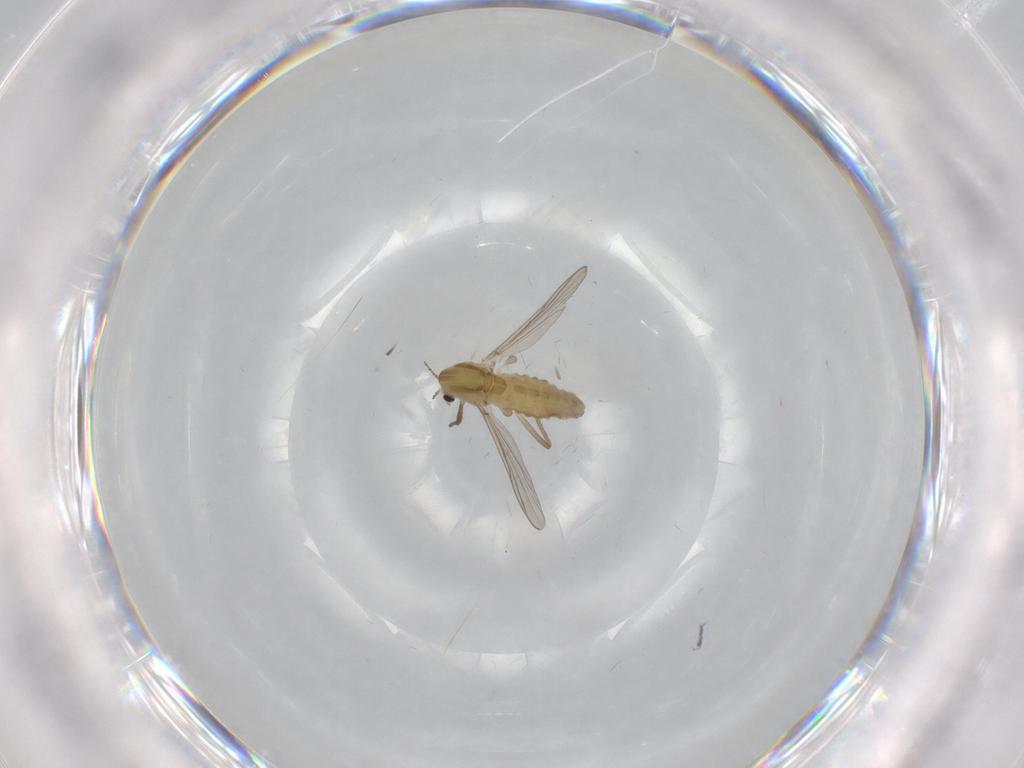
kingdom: Animalia
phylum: Arthropoda
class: Insecta
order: Diptera
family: Chironomidae
